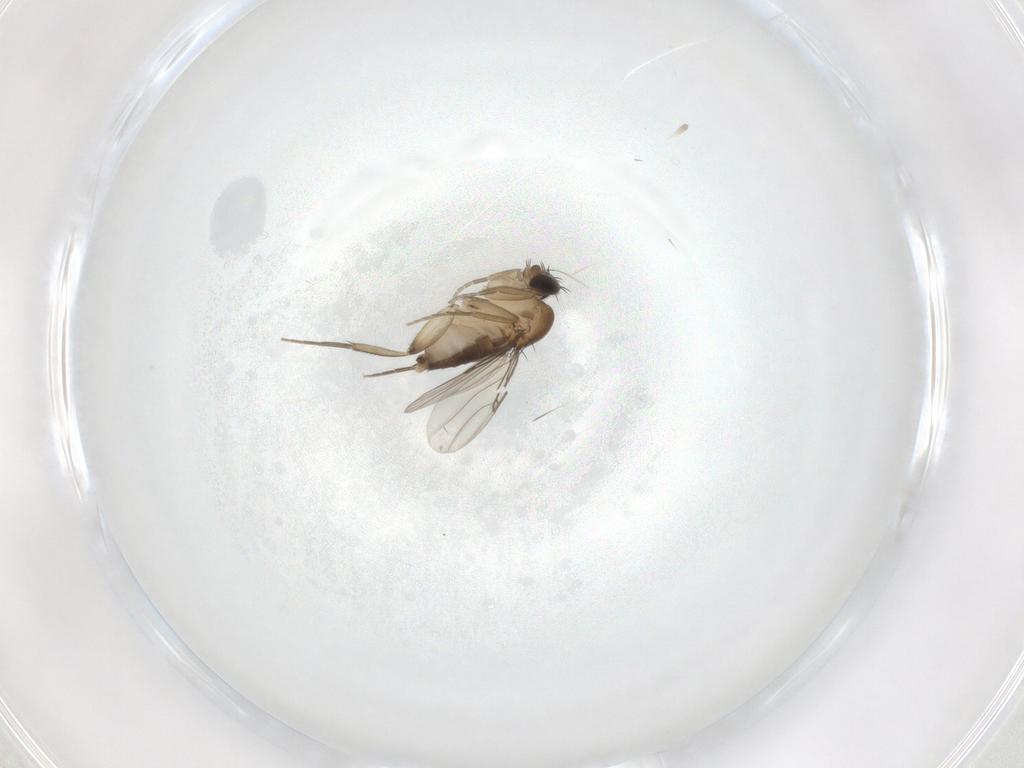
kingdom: Animalia
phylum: Arthropoda
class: Insecta
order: Diptera
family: Phoridae
